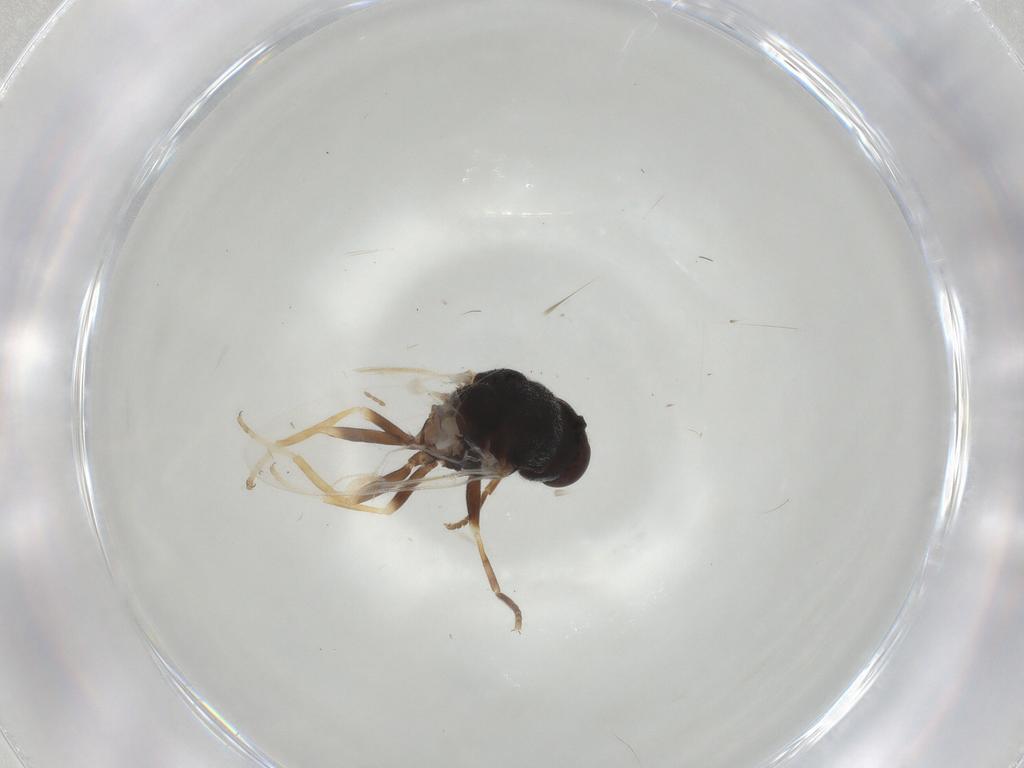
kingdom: Animalia
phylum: Arthropoda
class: Insecta
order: Diptera
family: Stratiomyidae
